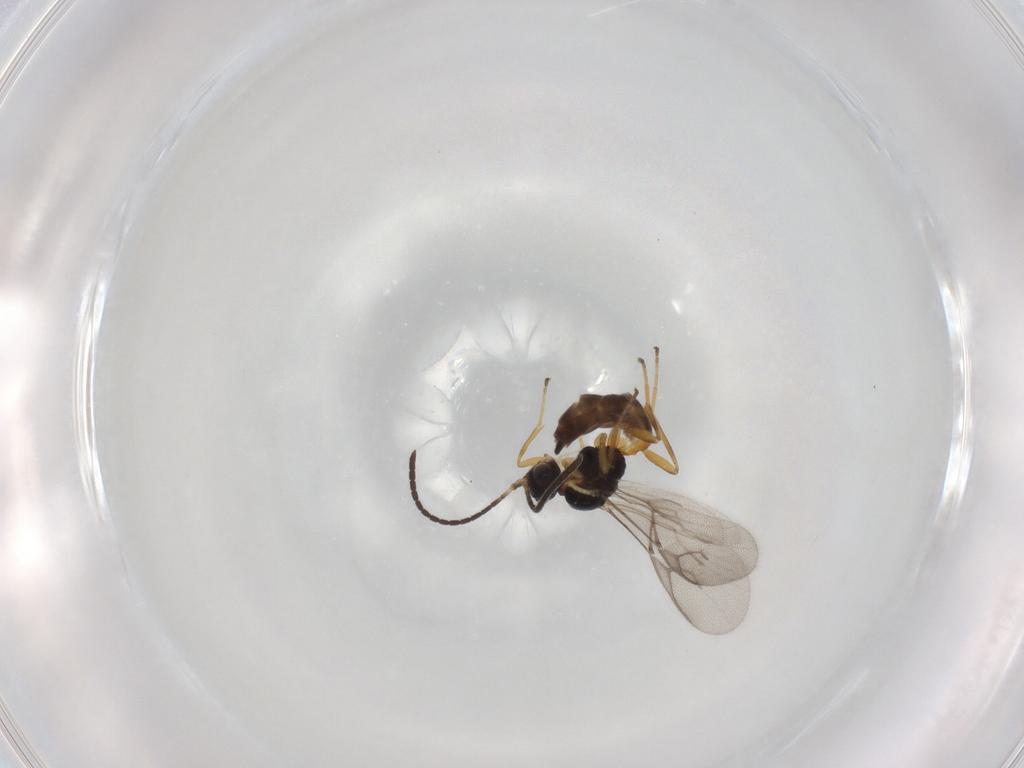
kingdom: Animalia
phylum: Arthropoda
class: Insecta
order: Hymenoptera
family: Braconidae
